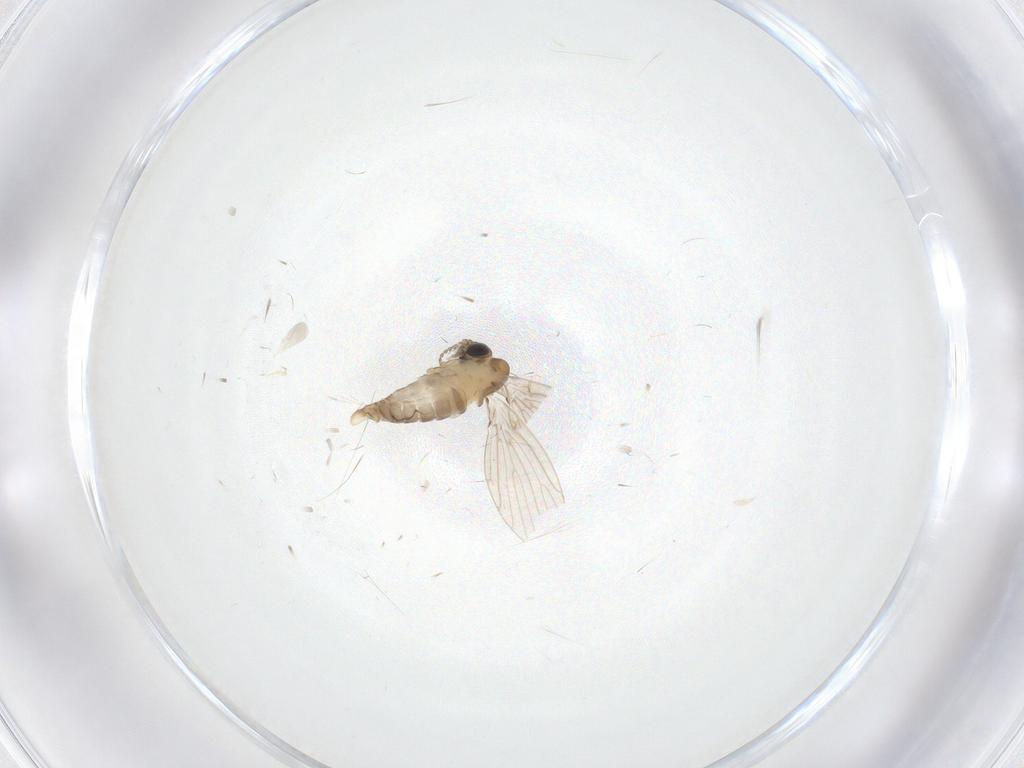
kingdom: Animalia
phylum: Arthropoda
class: Insecta
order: Diptera
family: Psychodidae
